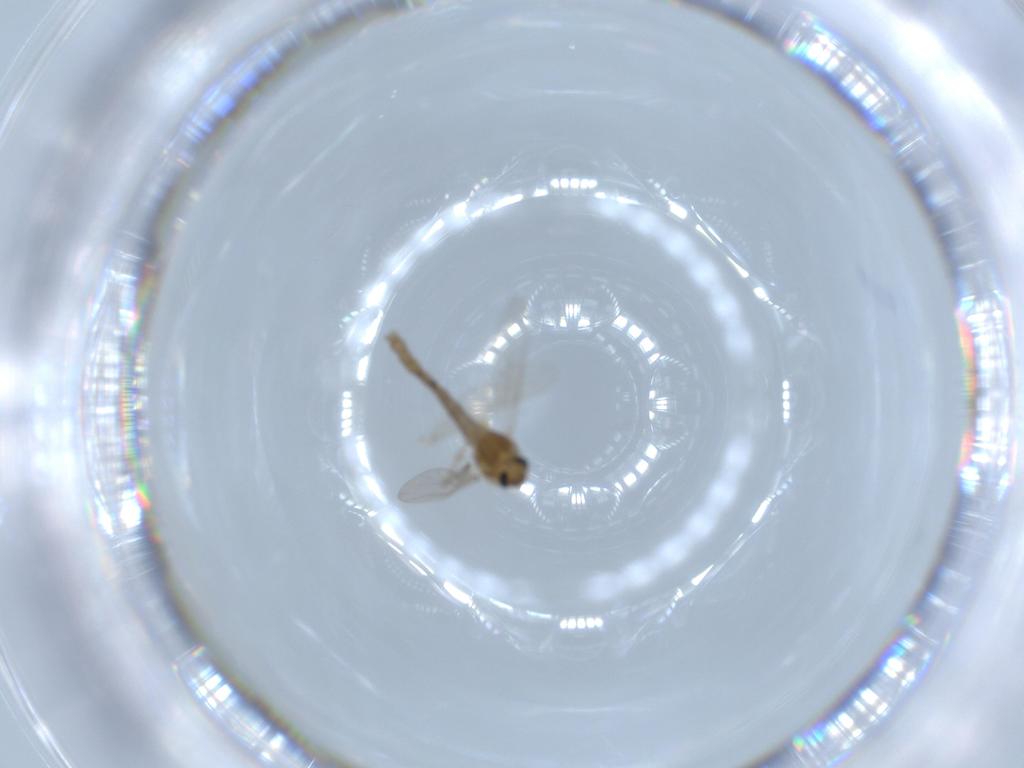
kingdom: Animalia
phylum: Arthropoda
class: Insecta
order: Diptera
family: Chironomidae
